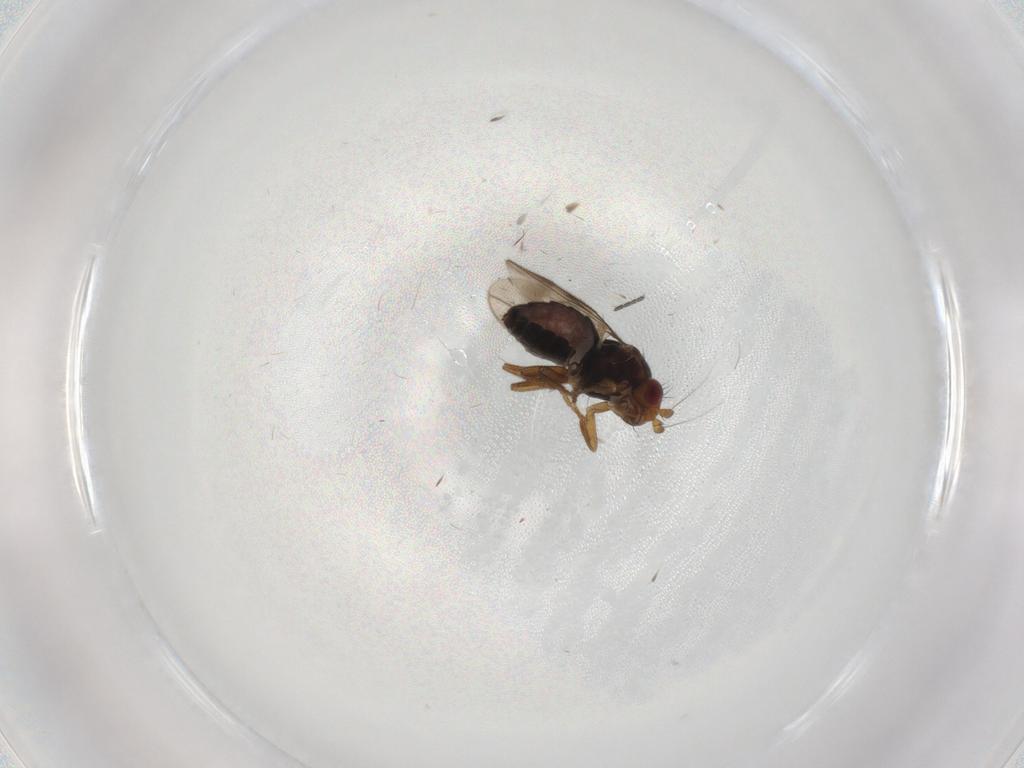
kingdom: Animalia
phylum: Arthropoda
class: Insecta
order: Diptera
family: Sphaeroceridae
